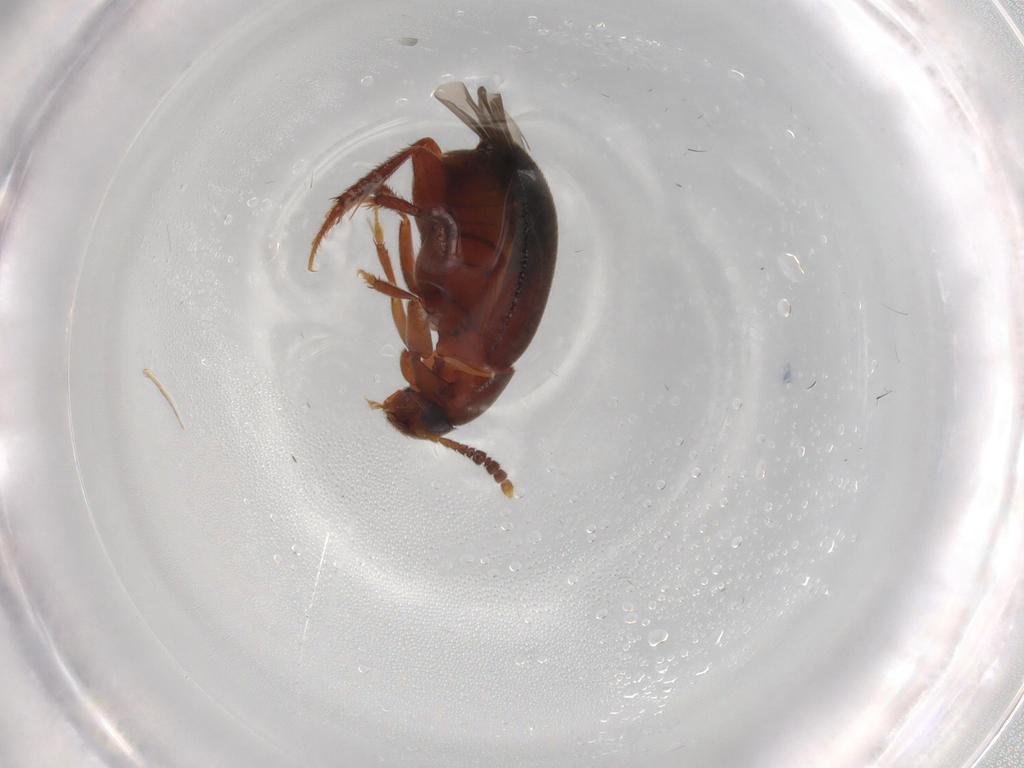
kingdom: Animalia
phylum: Arthropoda
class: Insecta
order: Coleoptera
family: Leiodidae
